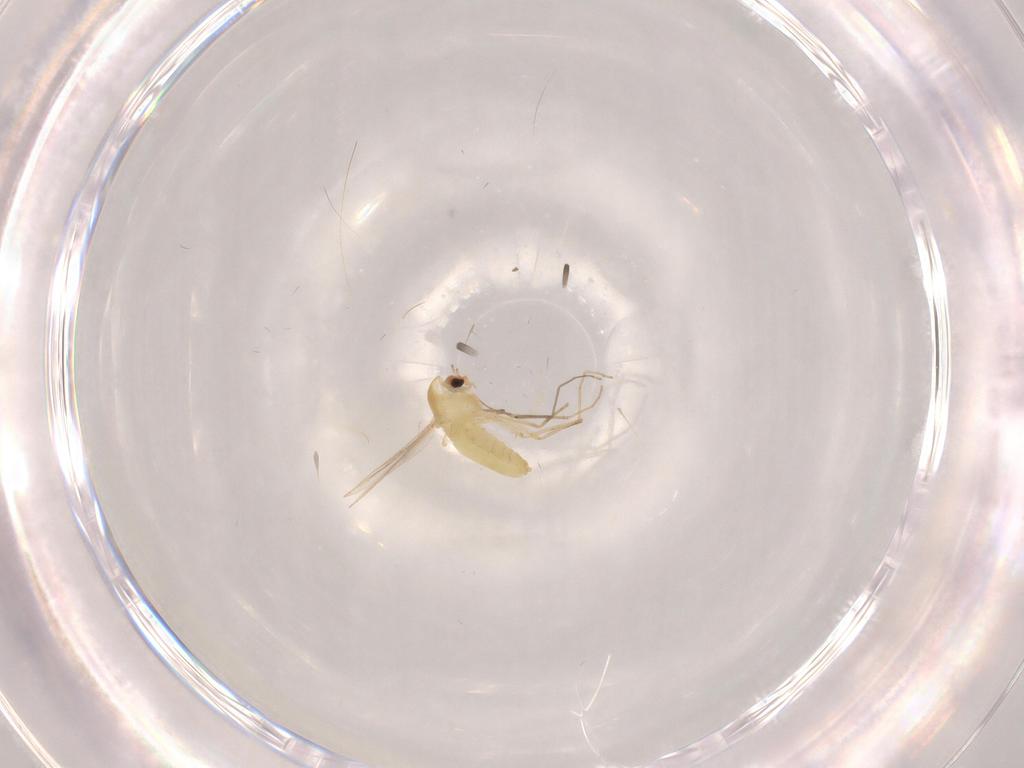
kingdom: Animalia
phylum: Arthropoda
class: Insecta
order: Diptera
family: Chironomidae
